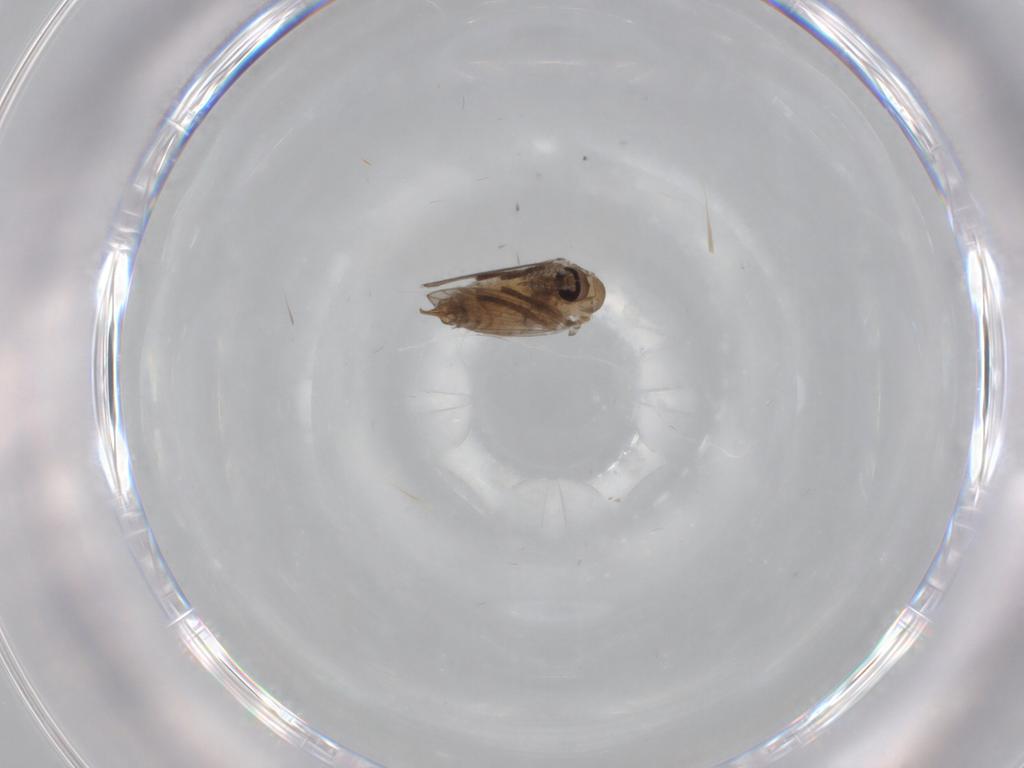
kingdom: Animalia
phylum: Arthropoda
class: Insecta
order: Diptera
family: Psychodidae
